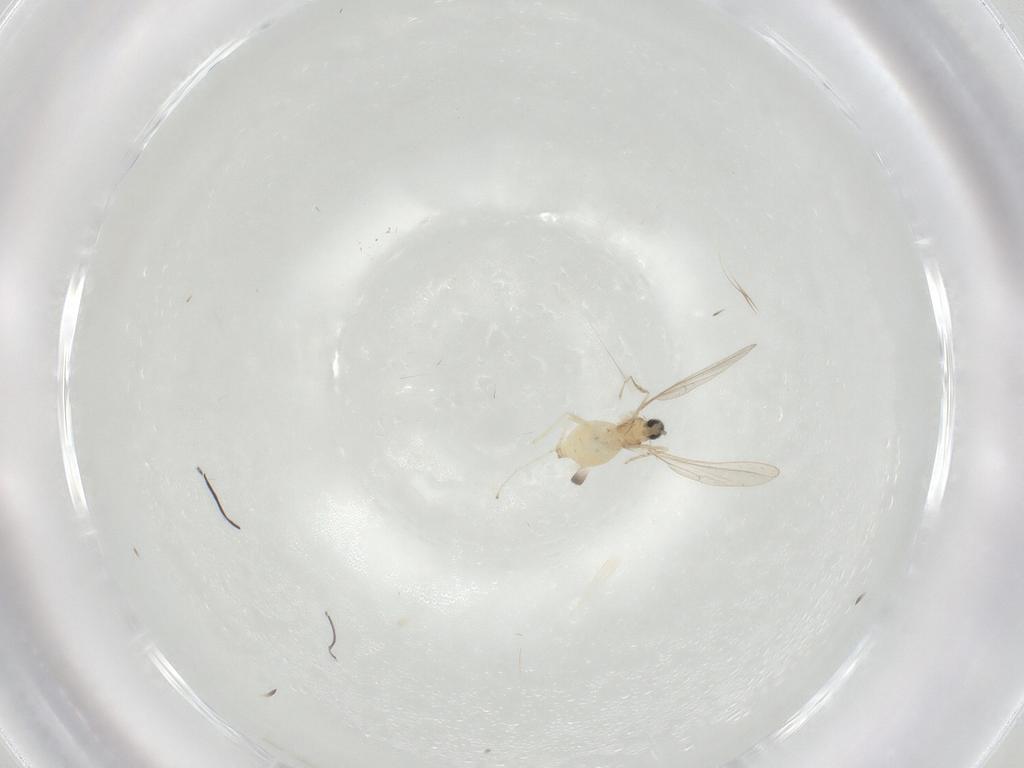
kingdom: Animalia
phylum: Arthropoda
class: Insecta
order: Diptera
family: Cecidomyiidae
